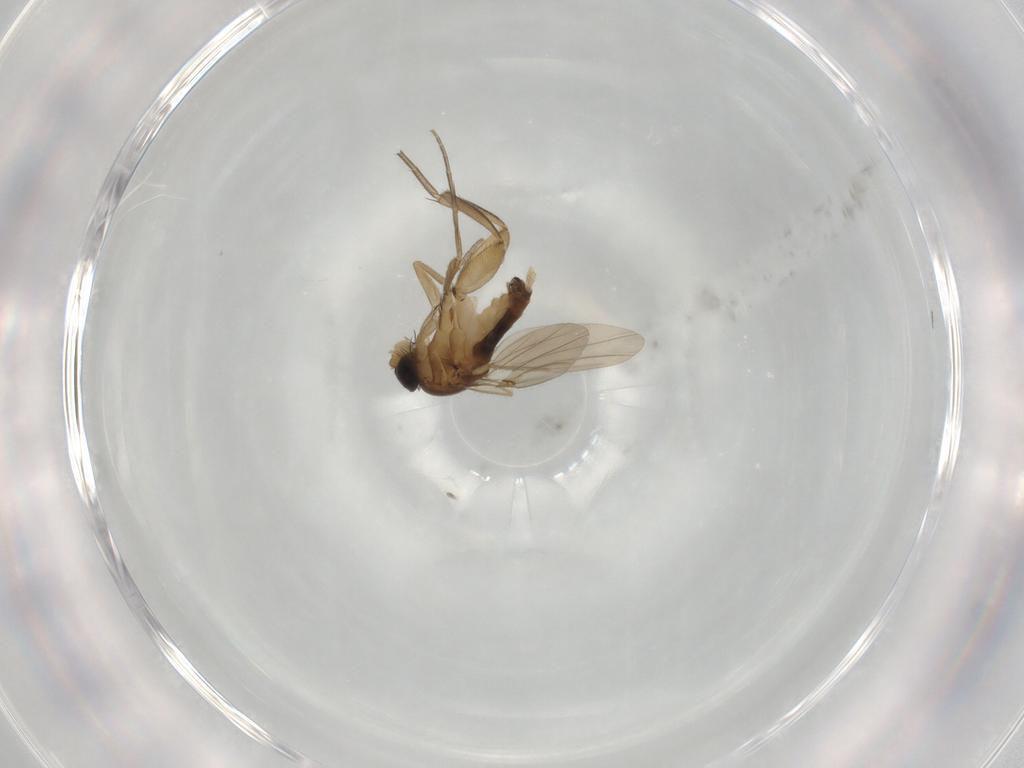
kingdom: Animalia
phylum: Arthropoda
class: Insecta
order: Diptera
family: Phoridae
